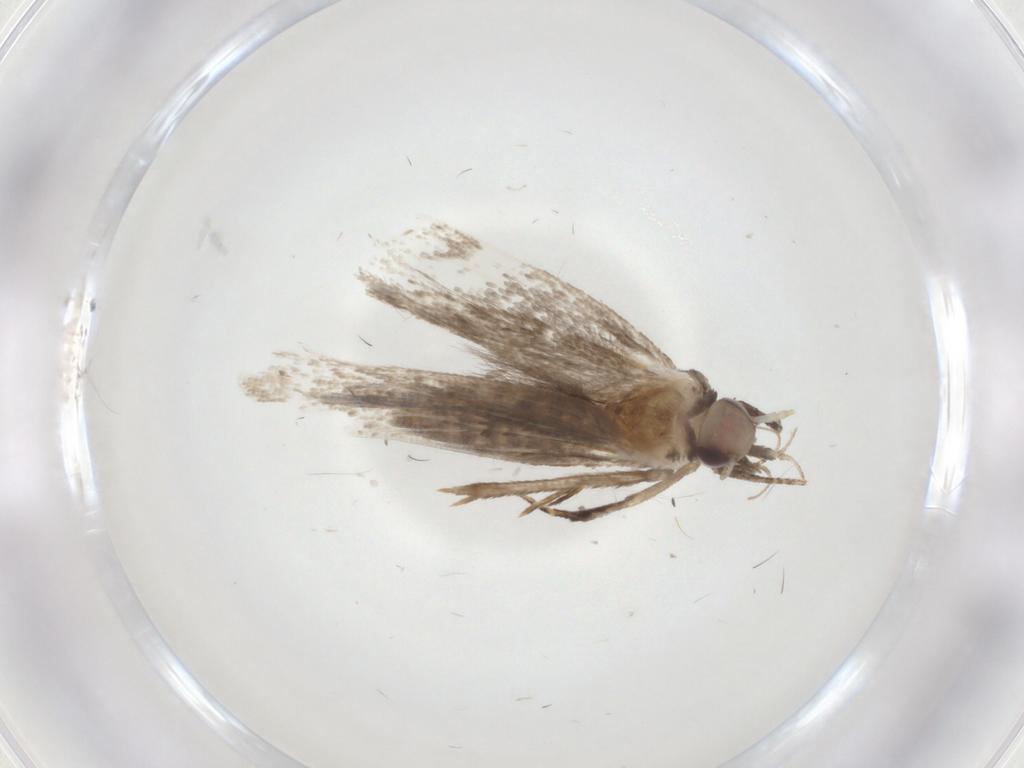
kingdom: Animalia
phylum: Arthropoda
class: Insecta
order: Lepidoptera
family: Gelechiidae
